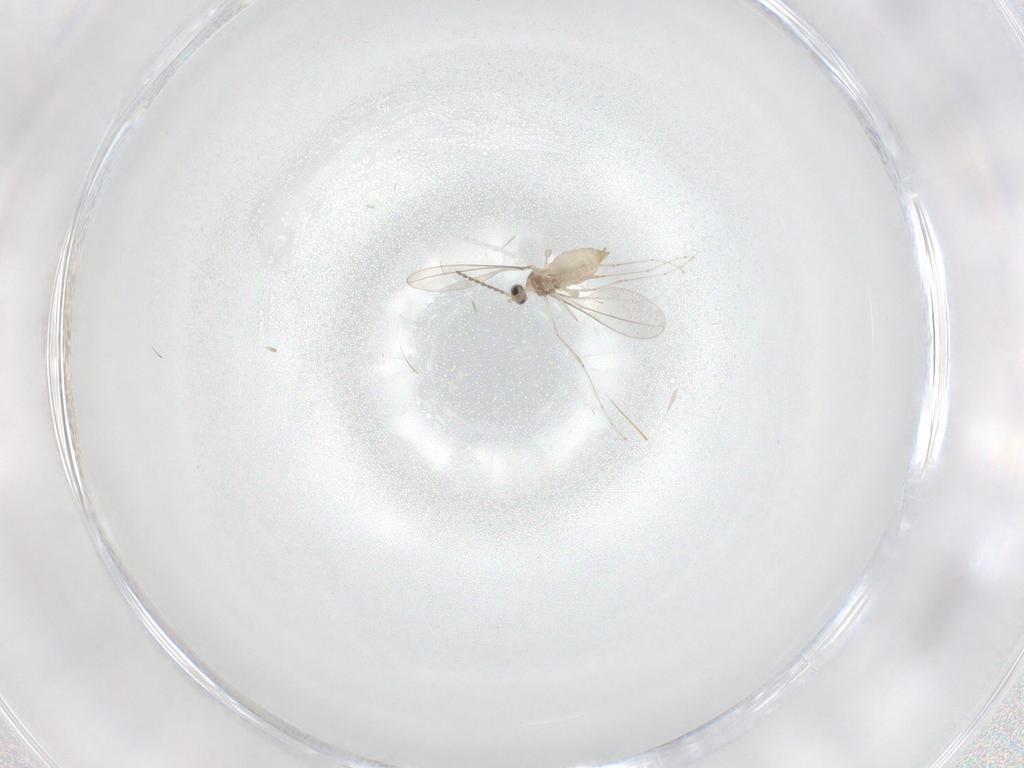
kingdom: Animalia
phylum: Arthropoda
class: Insecta
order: Diptera
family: Cecidomyiidae
